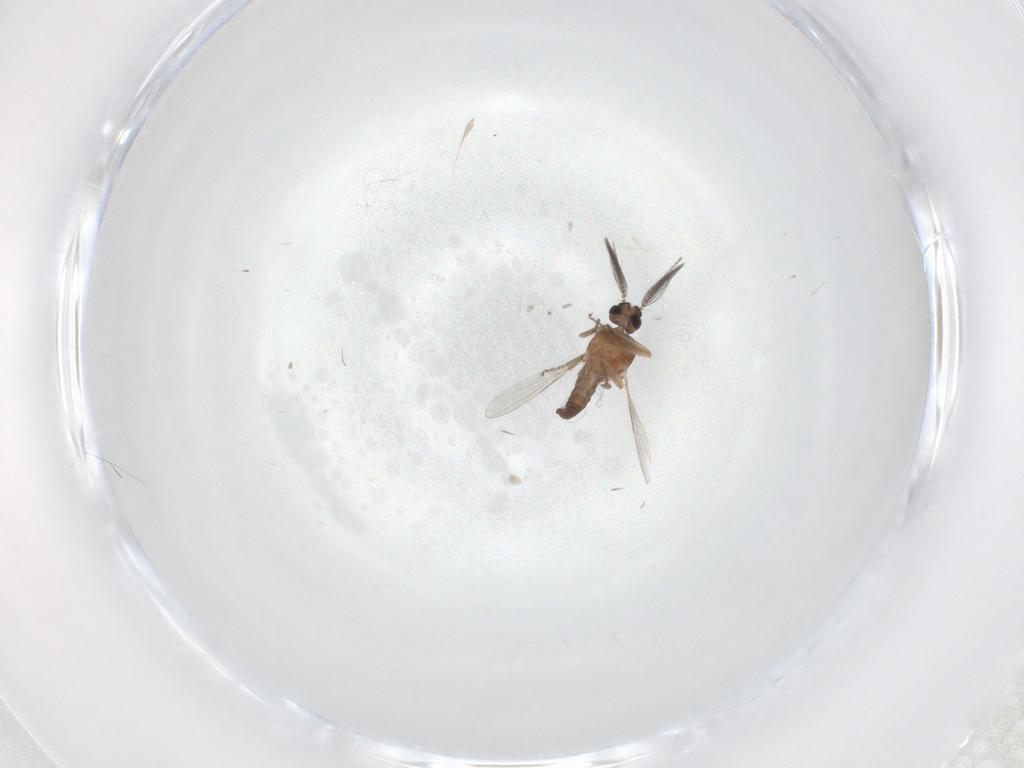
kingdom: Animalia
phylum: Arthropoda
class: Insecta
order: Diptera
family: Ceratopogonidae
